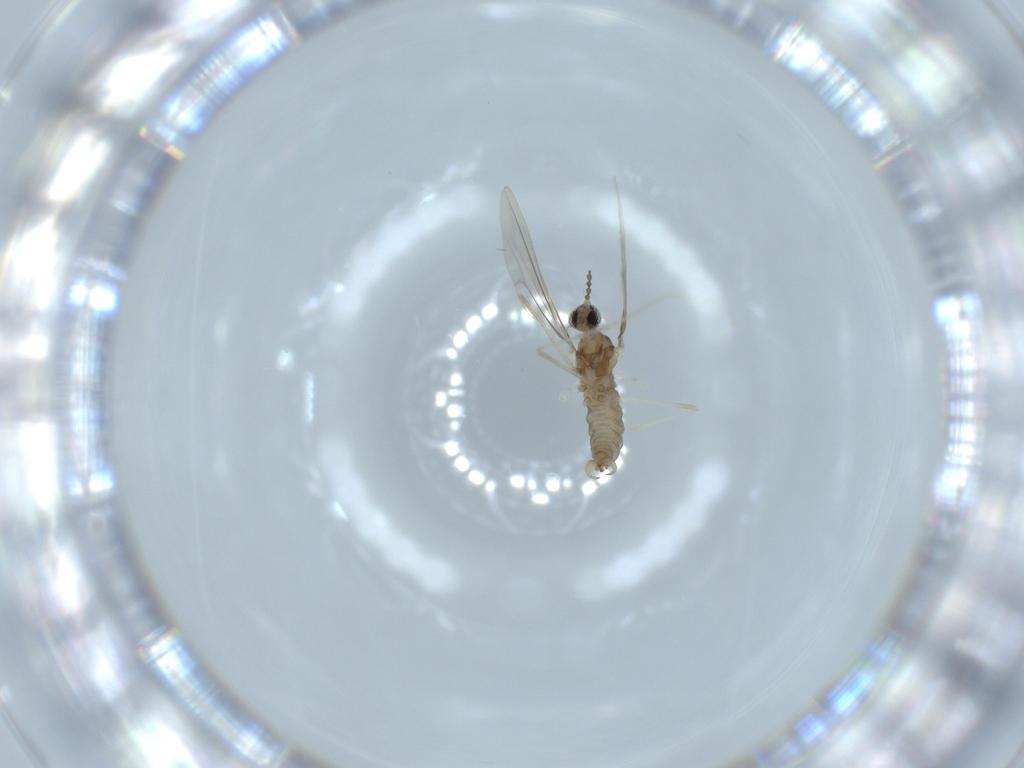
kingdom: Animalia
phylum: Arthropoda
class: Insecta
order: Diptera
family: Cecidomyiidae
